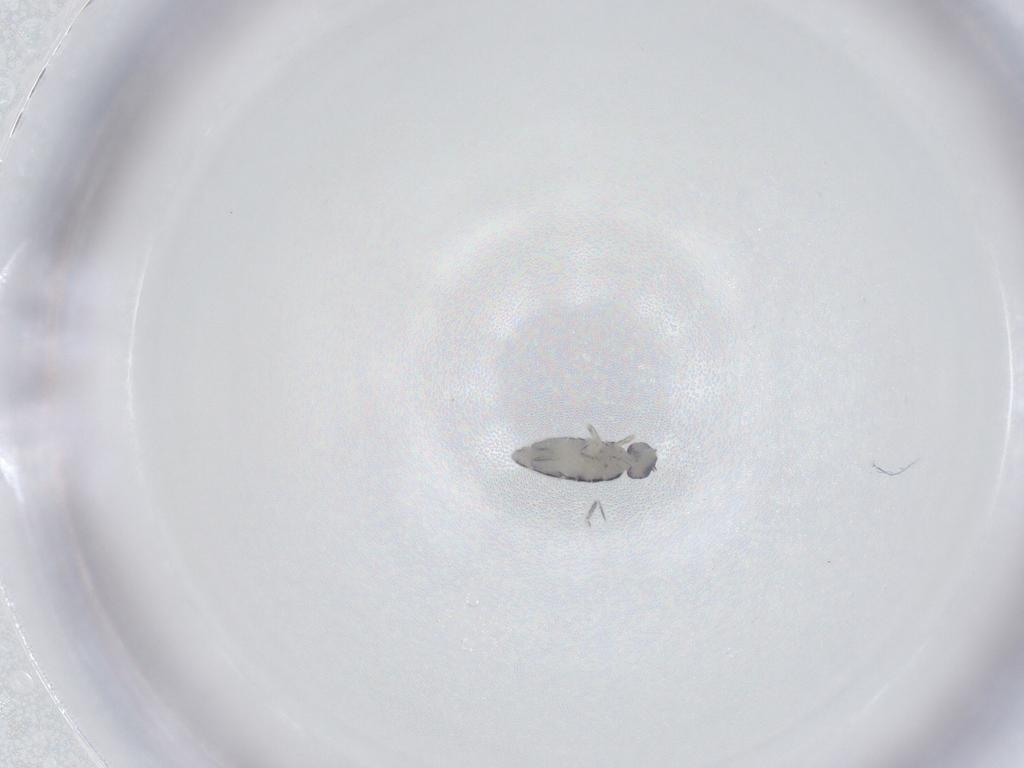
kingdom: Animalia
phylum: Arthropoda
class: Collembola
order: Entomobryomorpha
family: Entomobryidae
